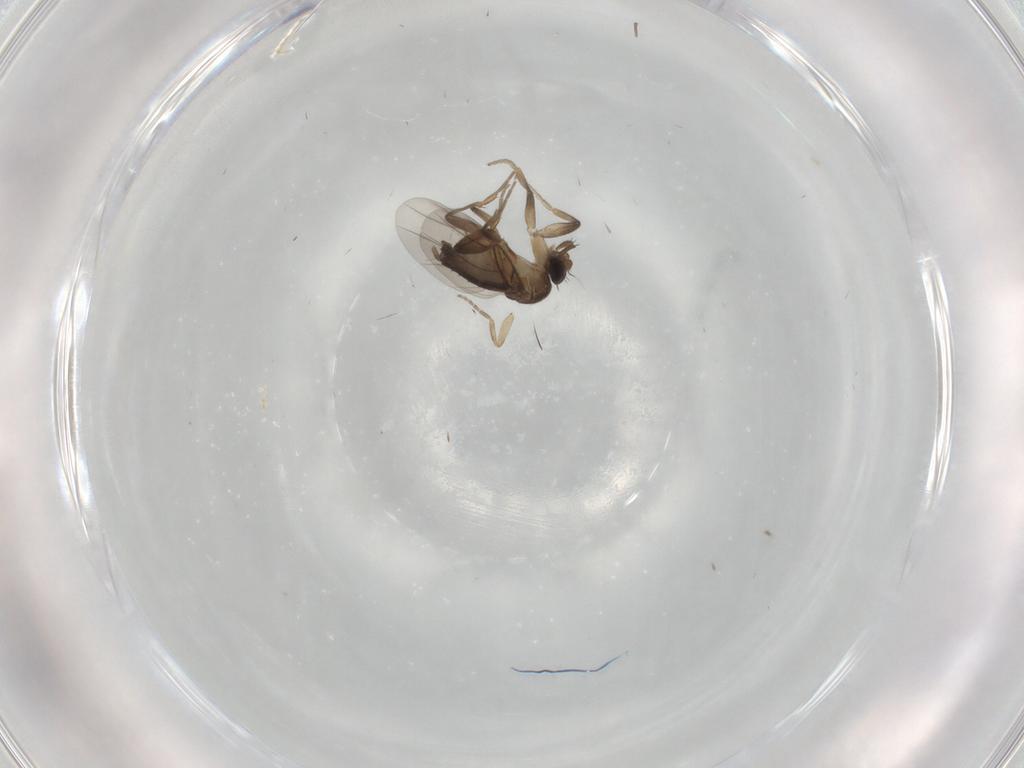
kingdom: Animalia
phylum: Arthropoda
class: Insecta
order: Diptera
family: Phoridae
